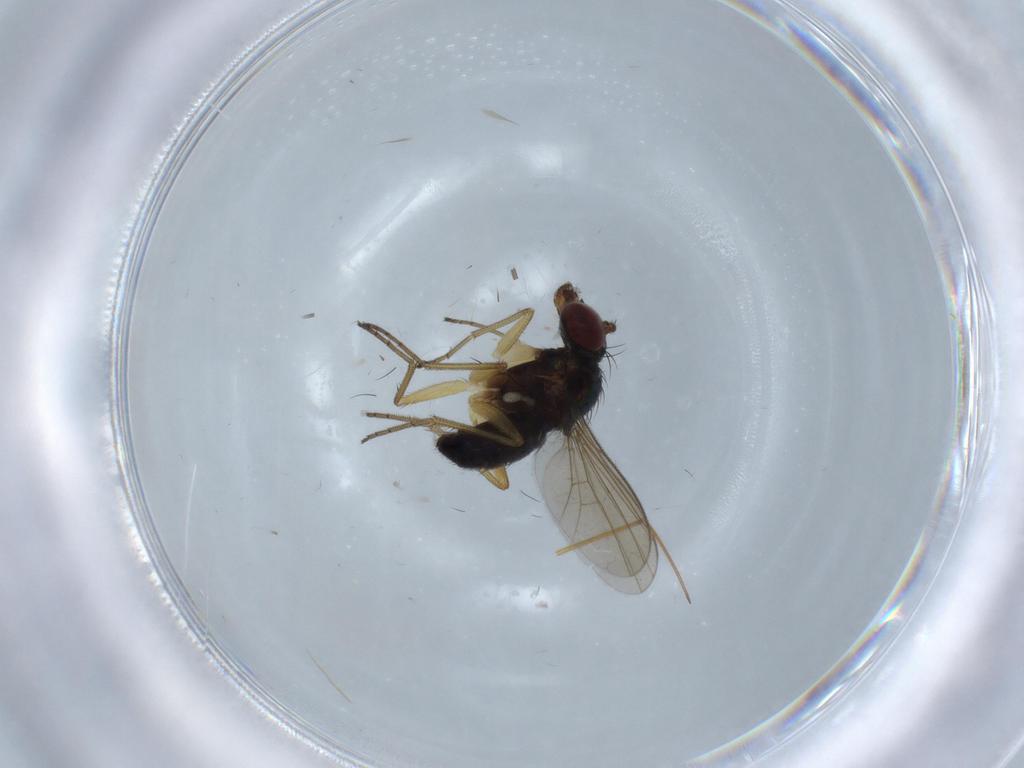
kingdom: Animalia
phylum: Arthropoda
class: Insecta
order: Diptera
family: Dolichopodidae
